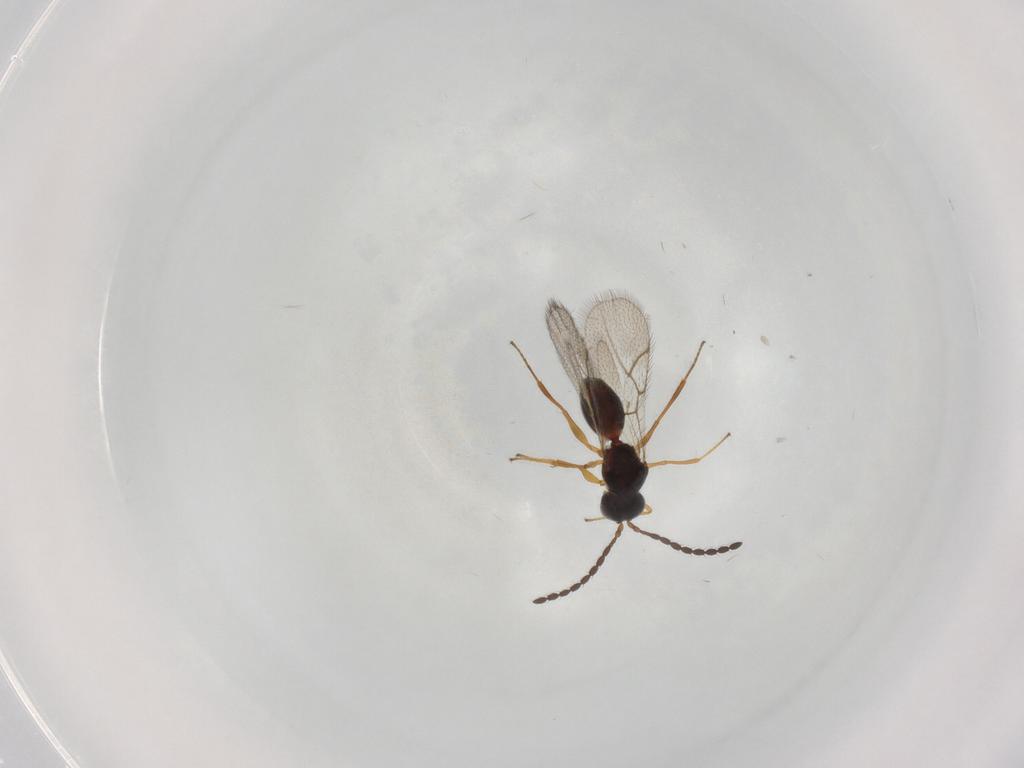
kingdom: Animalia
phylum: Arthropoda
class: Insecta
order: Hymenoptera
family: Figitidae
